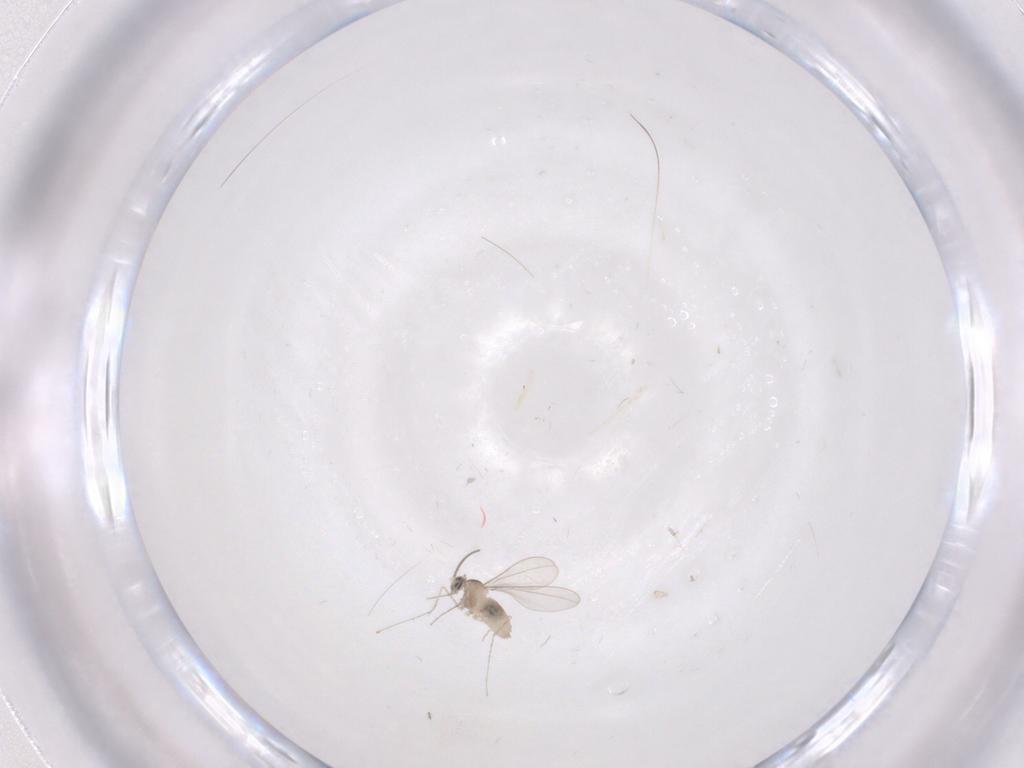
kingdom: Animalia
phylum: Arthropoda
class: Insecta
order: Diptera
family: Cecidomyiidae
